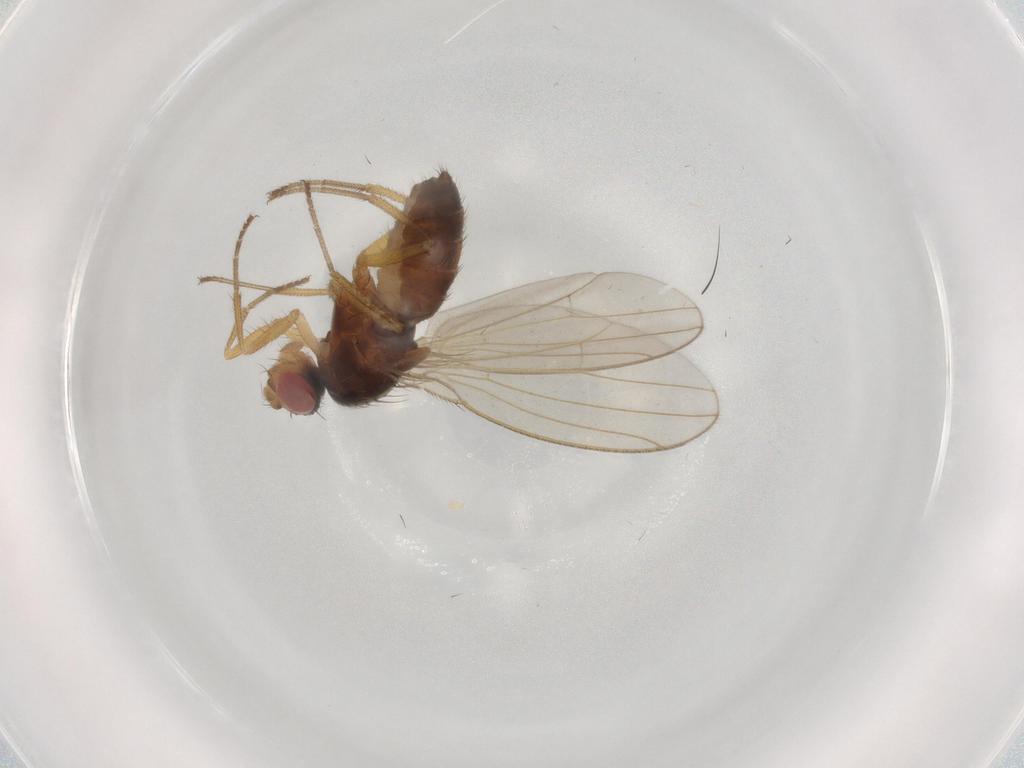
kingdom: Animalia
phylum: Arthropoda
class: Insecta
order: Diptera
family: Drosophilidae
